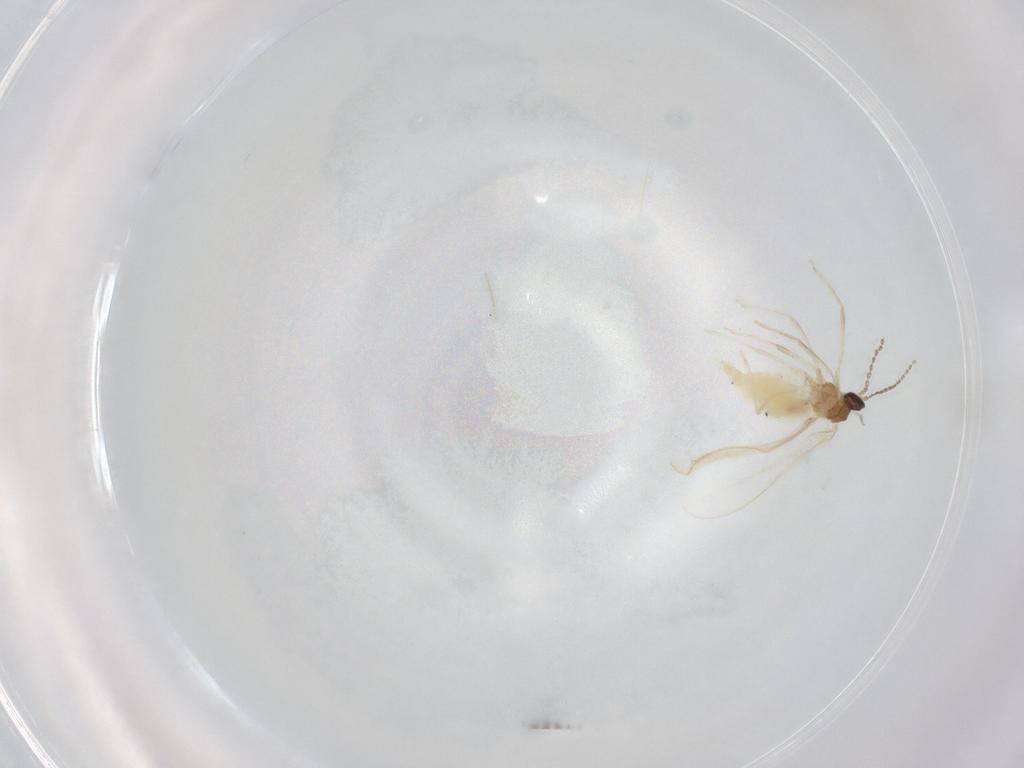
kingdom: Animalia
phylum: Arthropoda
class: Insecta
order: Diptera
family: Cecidomyiidae
